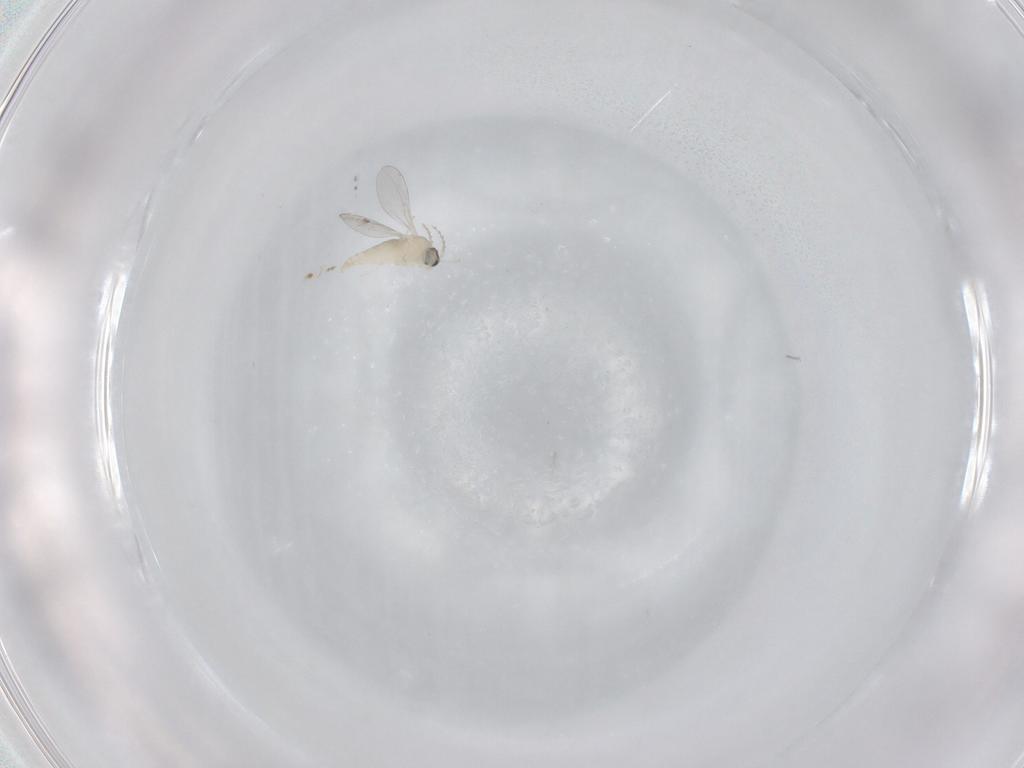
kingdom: Animalia
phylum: Arthropoda
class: Insecta
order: Diptera
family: Cecidomyiidae
